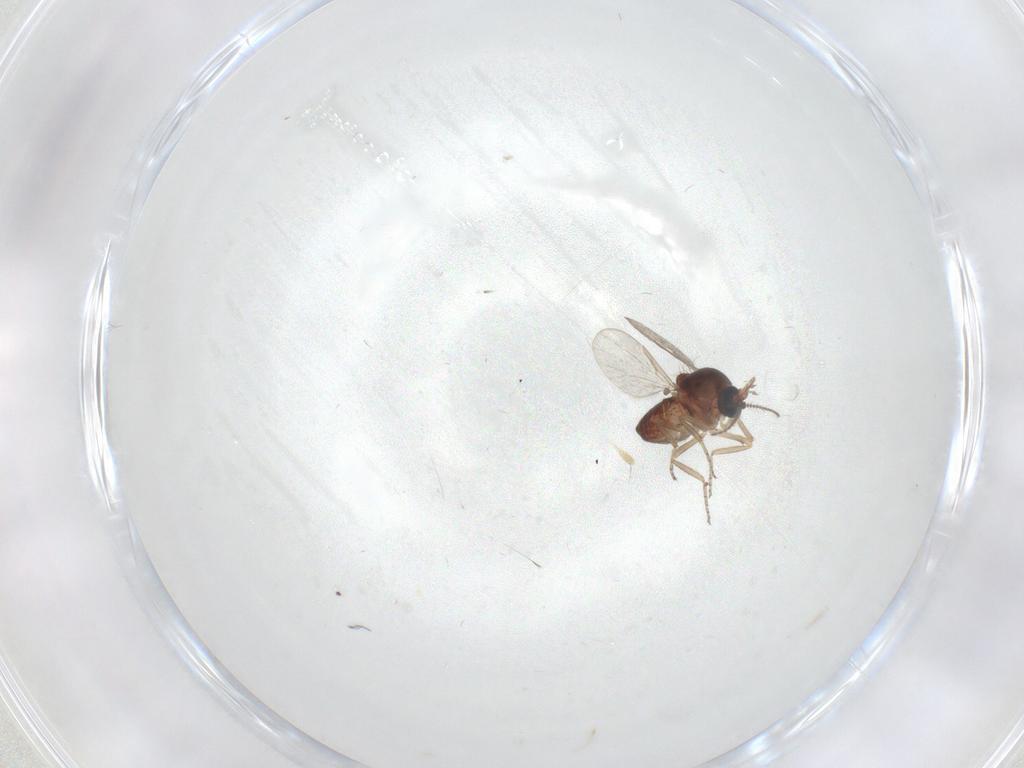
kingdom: Animalia
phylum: Arthropoda
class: Insecta
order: Diptera
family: Ceratopogonidae
